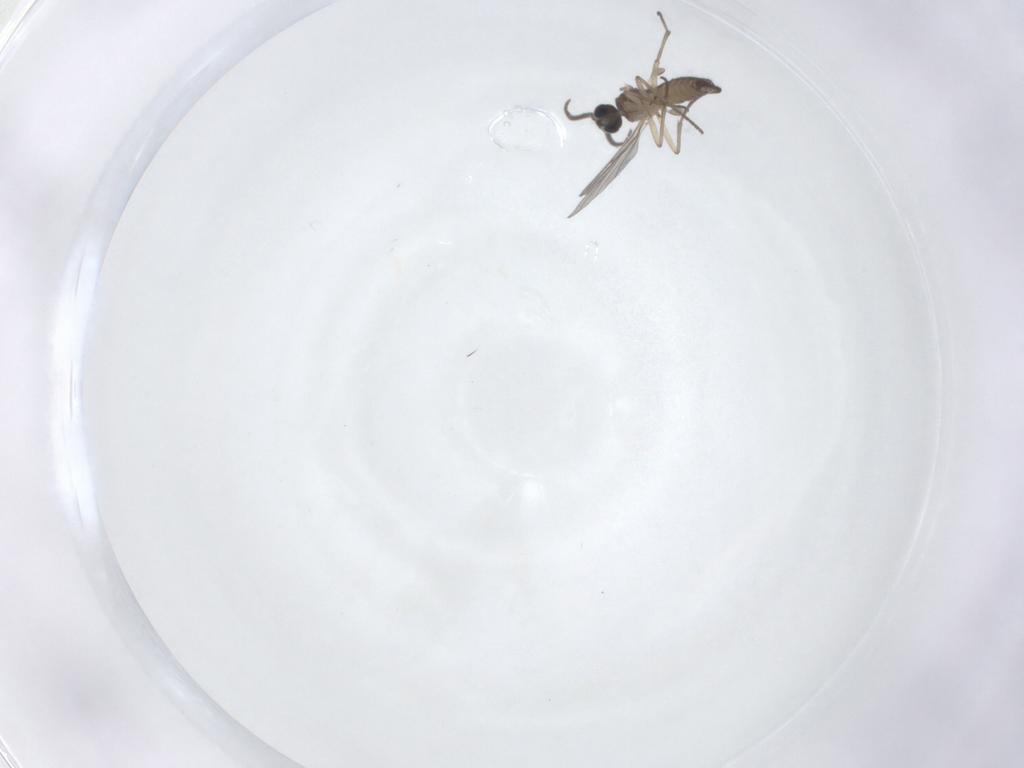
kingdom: Animalia
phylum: Arthropoda
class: Insecta
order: Diptera
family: Sciaridae
